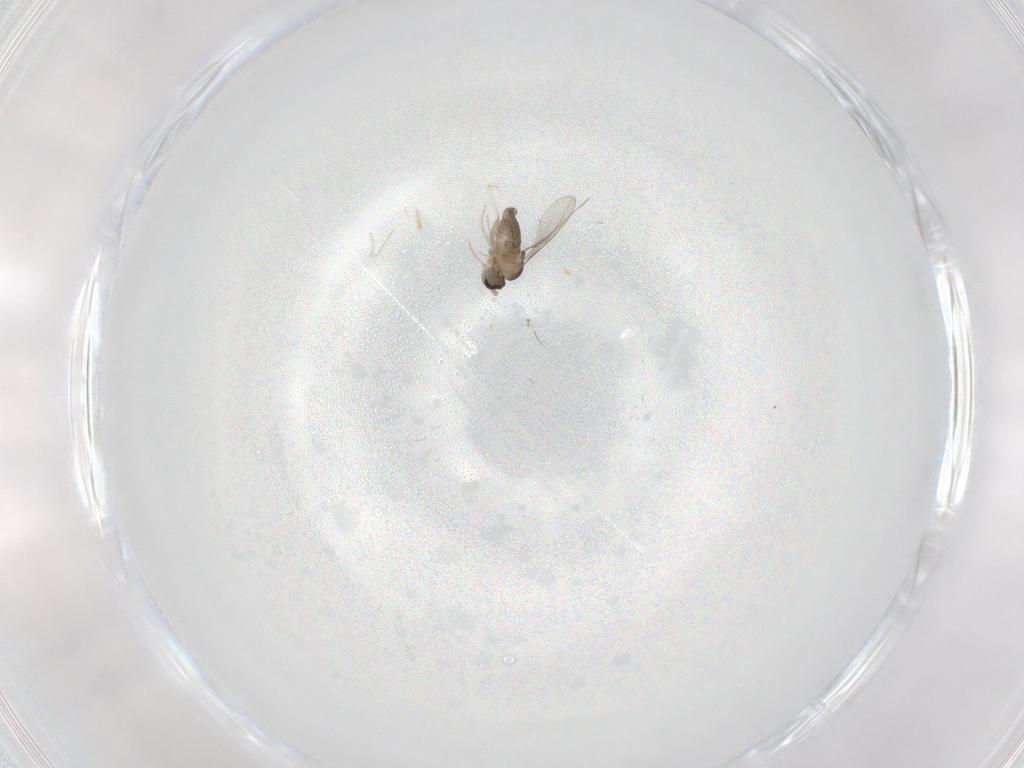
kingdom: Animalia
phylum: Arthropoda
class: Insecta
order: Diptera
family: Cecidomyiidae
